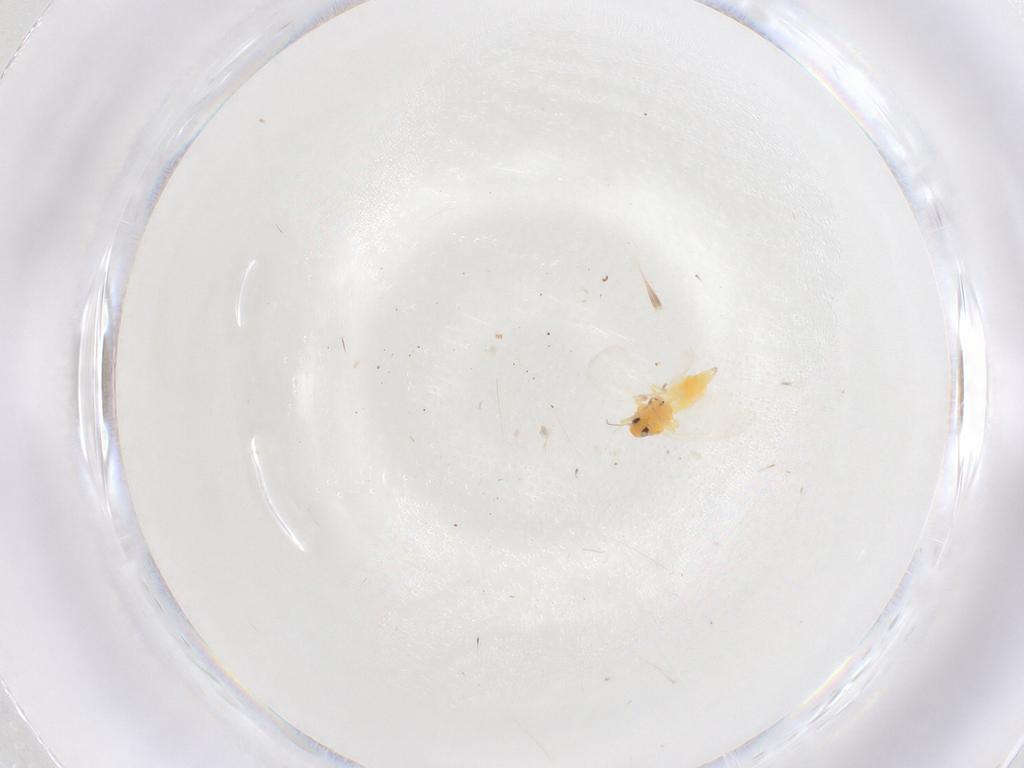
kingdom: Animalia
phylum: Arthropoda
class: Insecta
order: Hemiptera
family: Aleyrodidae
